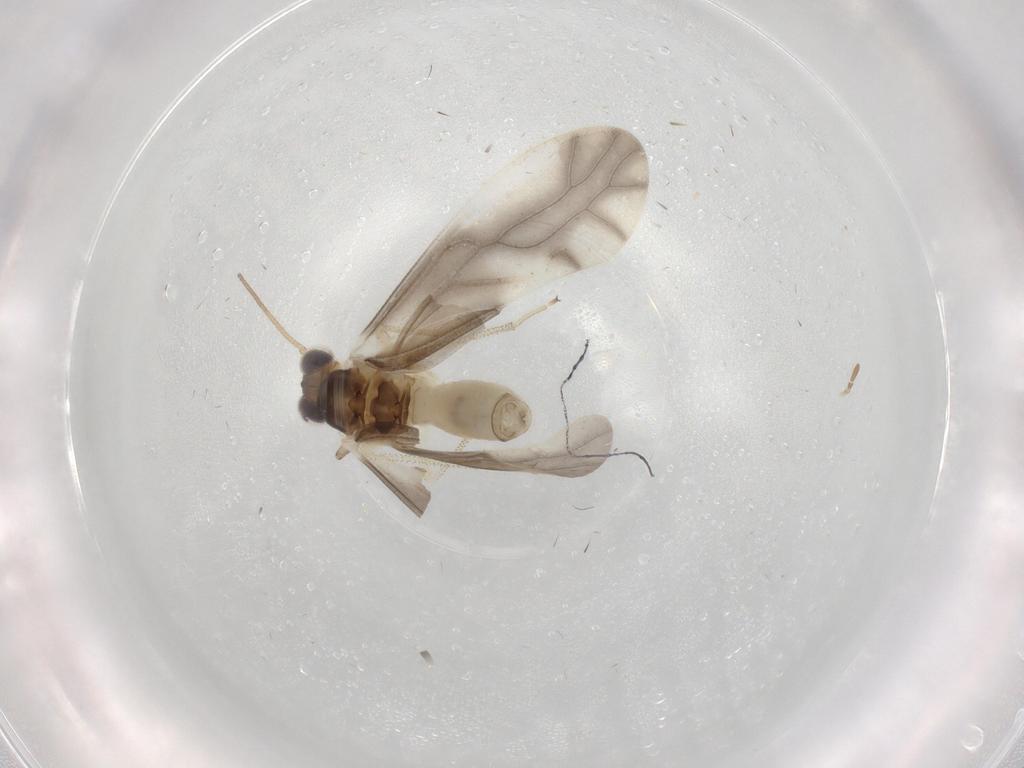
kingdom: Animalia
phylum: Arthropoda
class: Insecta
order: Psocodea
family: Caeciliusidae
